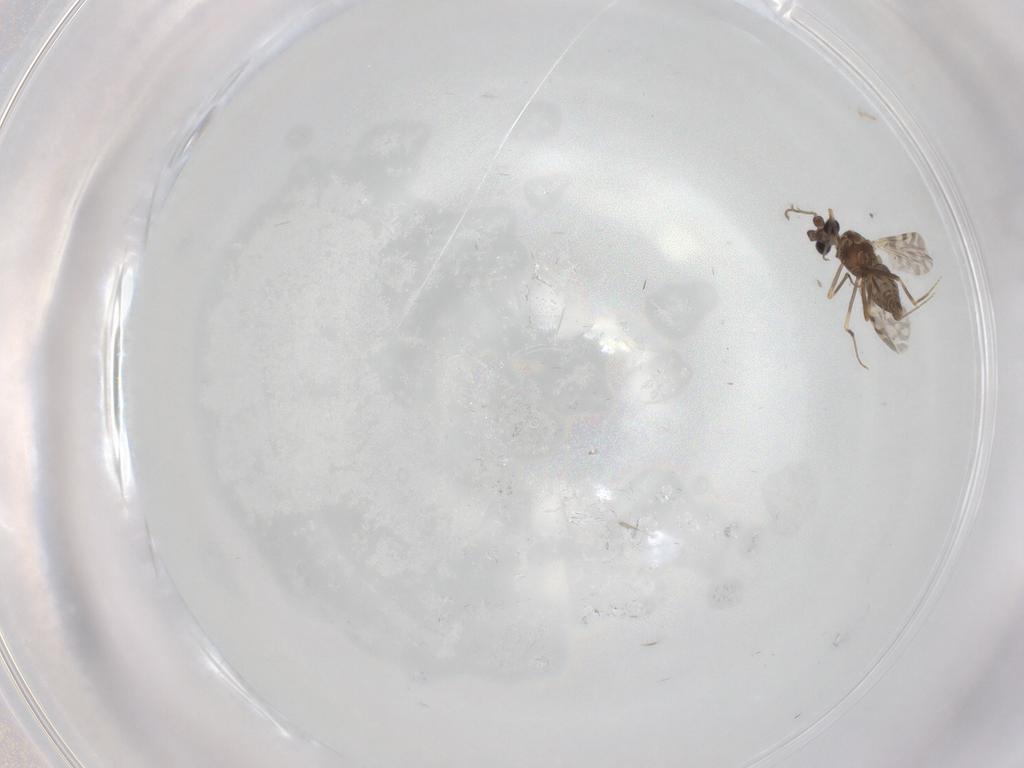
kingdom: Animalia
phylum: Arthropoda
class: Insecta
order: Diptera
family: Ceratopogonidae
